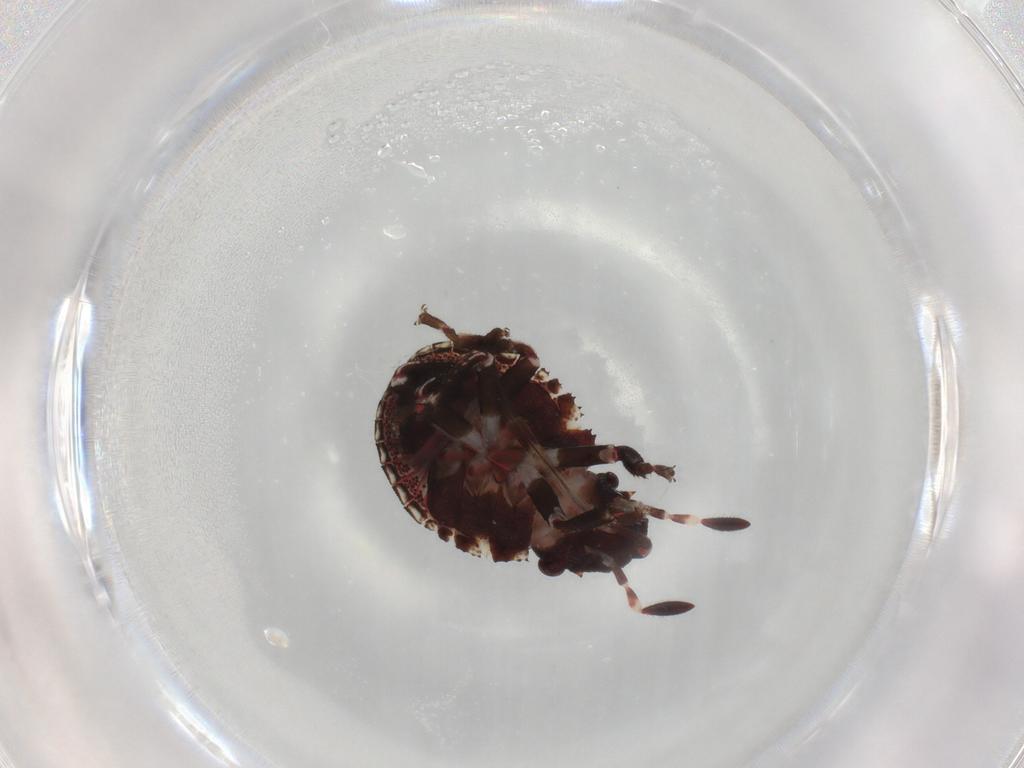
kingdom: Animalia
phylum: Arthropoda
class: Insecta
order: Hemiptera
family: Scutelleridae
